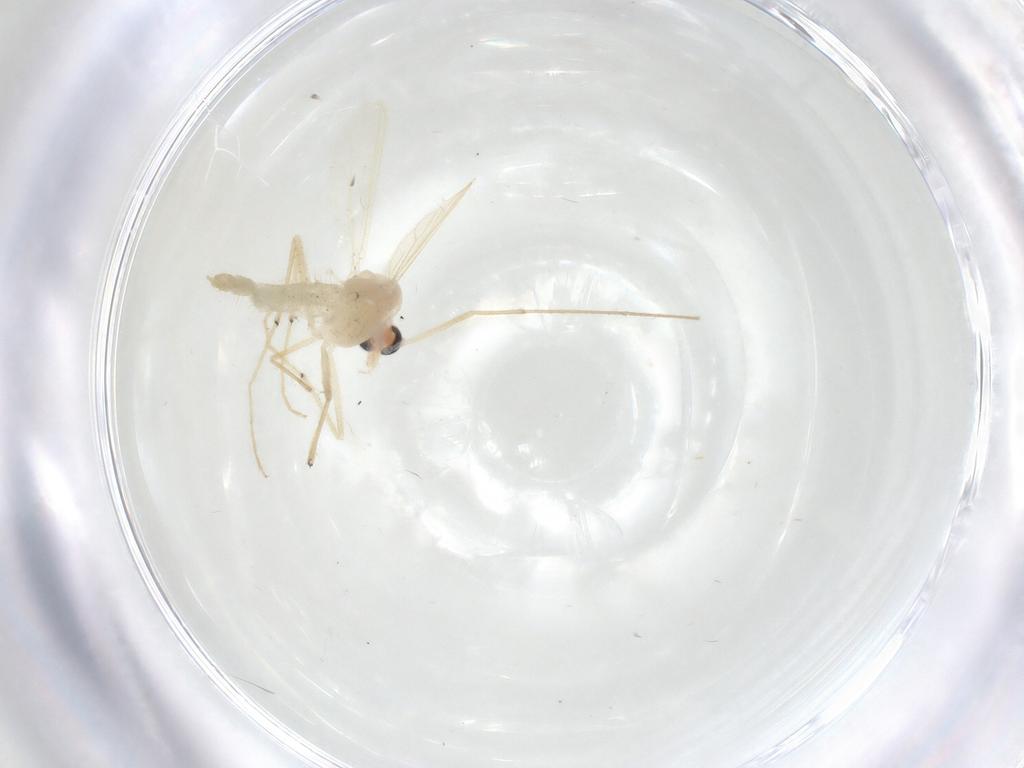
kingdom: Animalia
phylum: Arthropoda
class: Insecta
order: Diptera
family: Chironomidae
